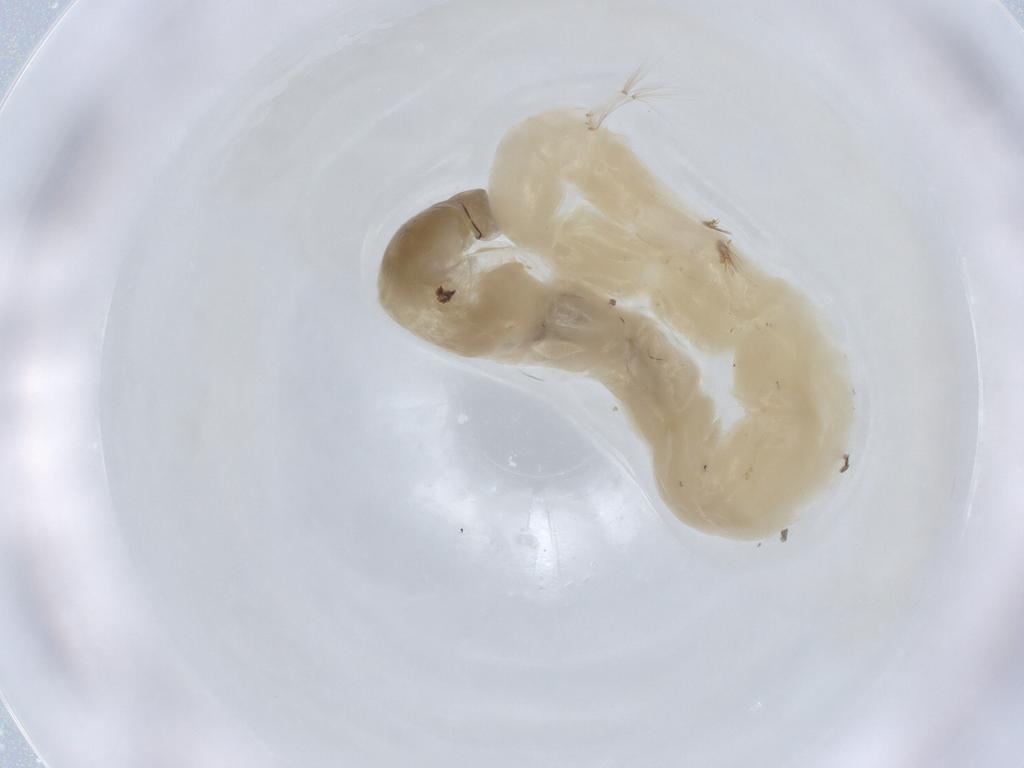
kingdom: Animalia
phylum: Arthropoda
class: Insecta
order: Diptera
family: Chironomidae
